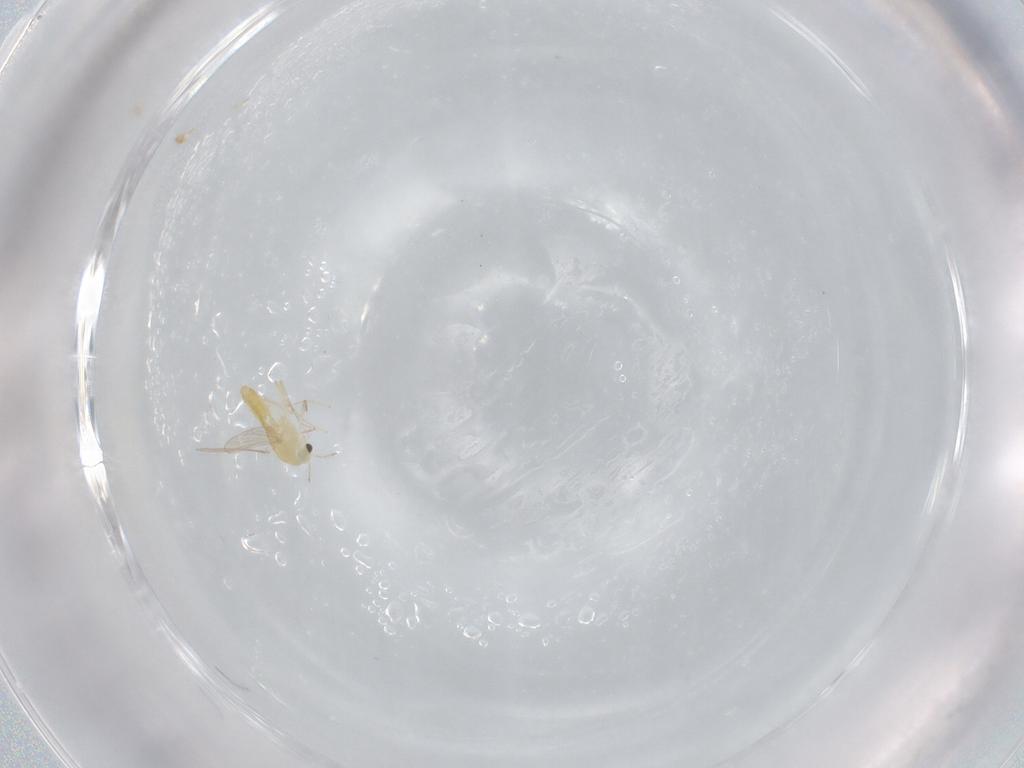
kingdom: Animalia
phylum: Arthropoda
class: Insecta
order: Diptera
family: Chironomidae
